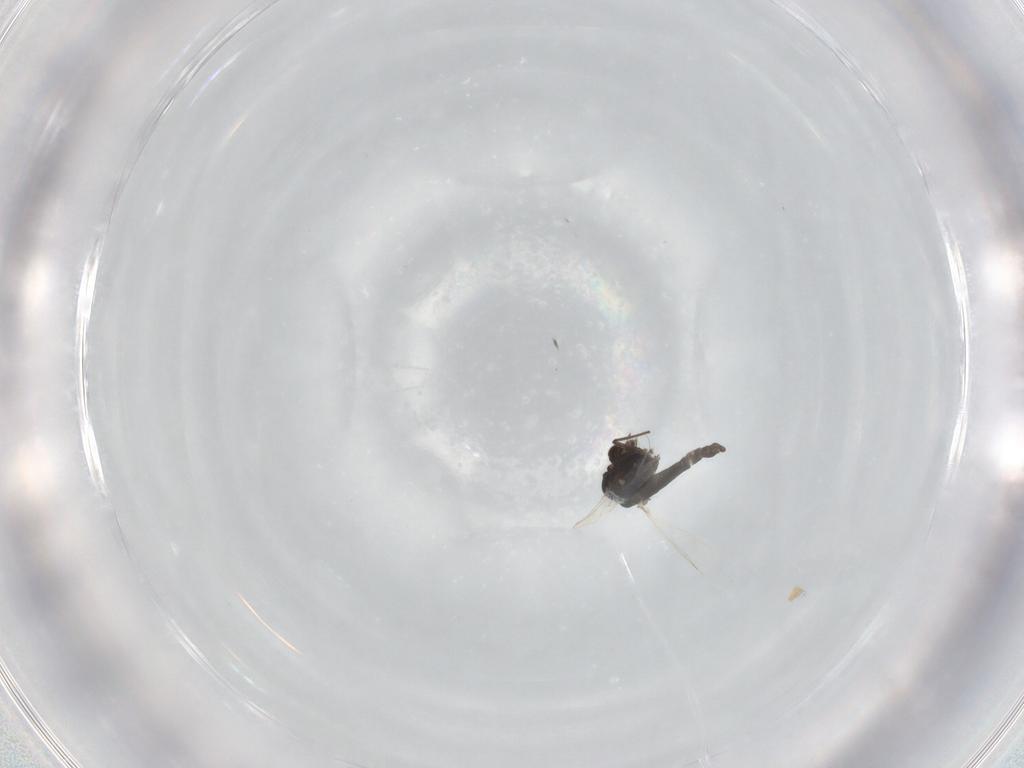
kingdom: Animalia
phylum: Arthropoda
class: Insecta
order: Diptera
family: Chironomidae
